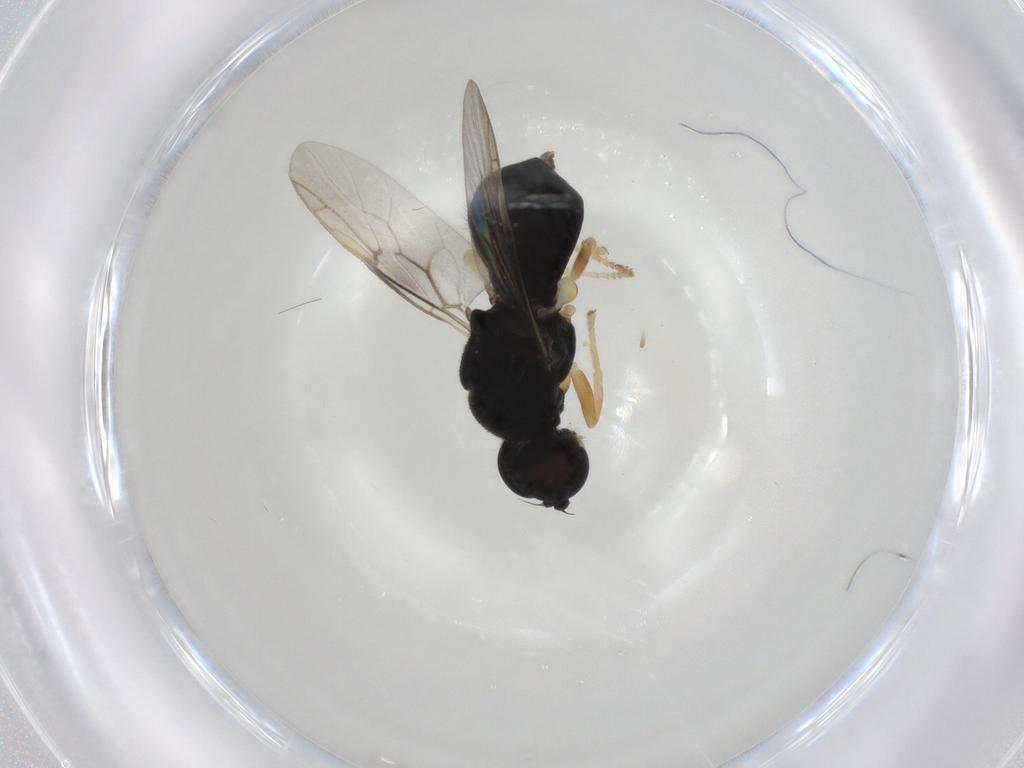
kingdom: Animalia
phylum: Arthropoda
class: Insecta
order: Diptera
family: Stratiomyidae
